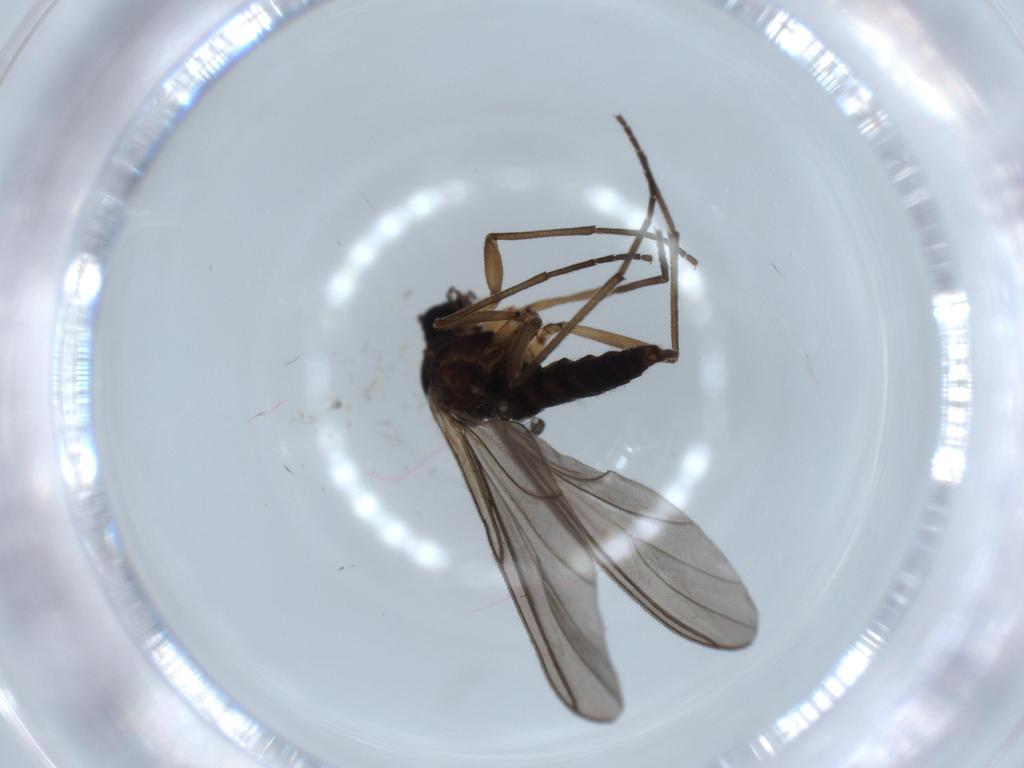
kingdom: Animalia
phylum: Arthropoda
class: Insecta
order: Diptera
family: Sciaridae
